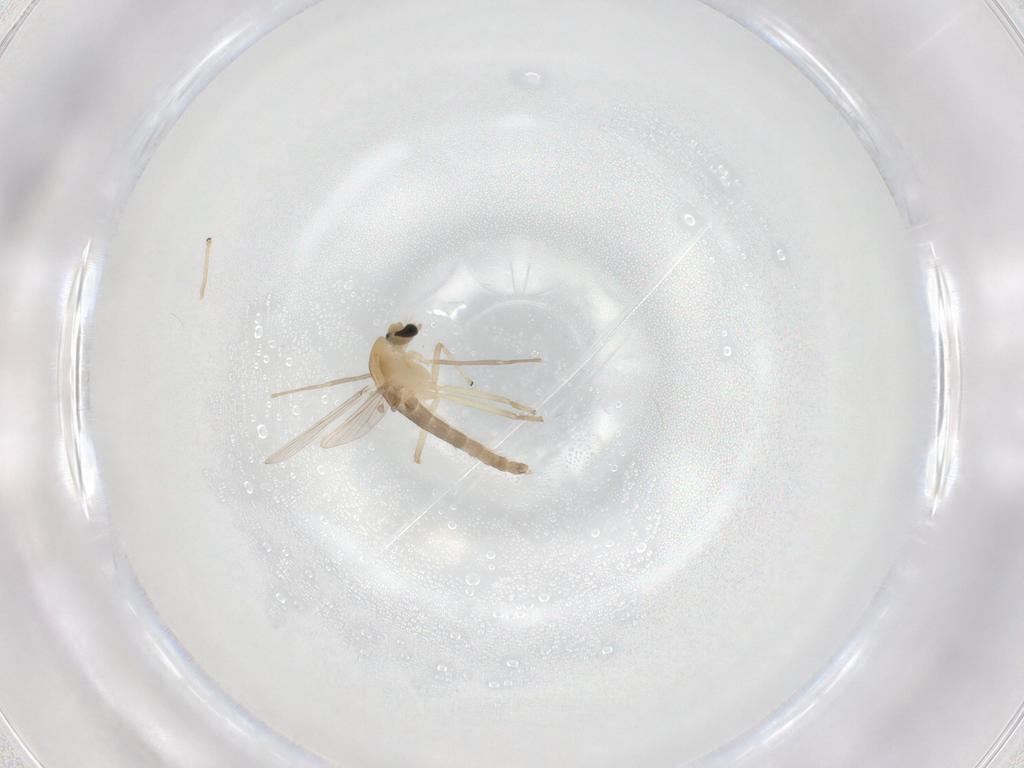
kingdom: Animalia
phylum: Arthropoda
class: Insecta
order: Diptera
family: Chironomidae
